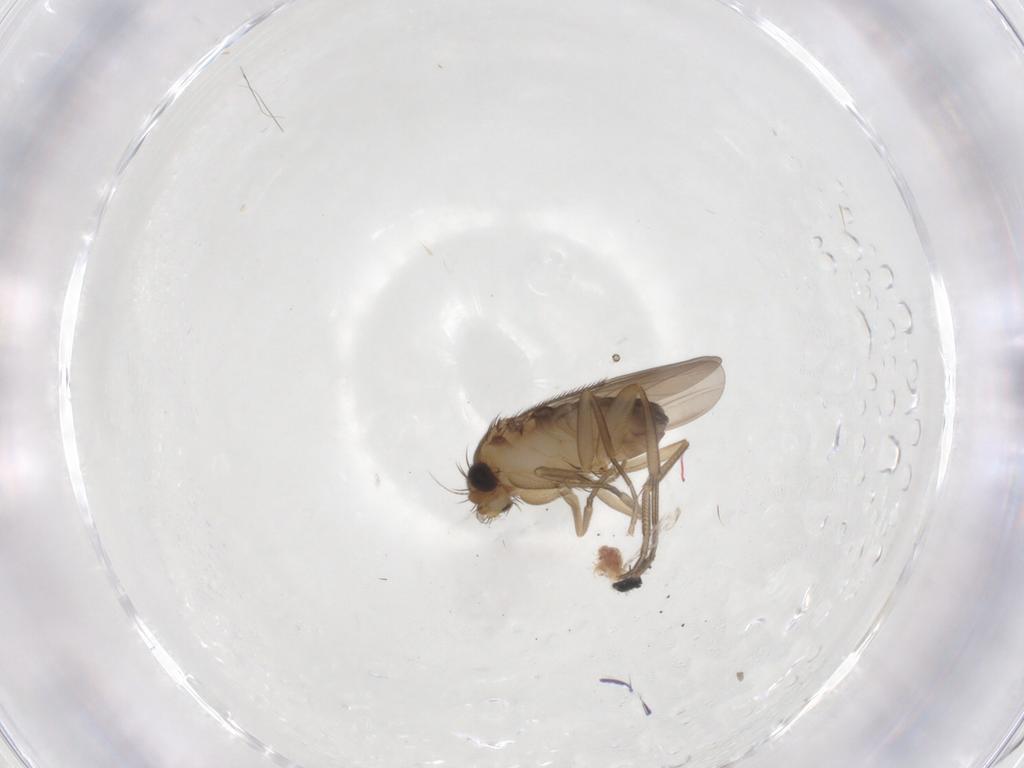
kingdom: Animalia
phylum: Arthropoda
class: Insecta
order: Diptera
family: Phoridae
